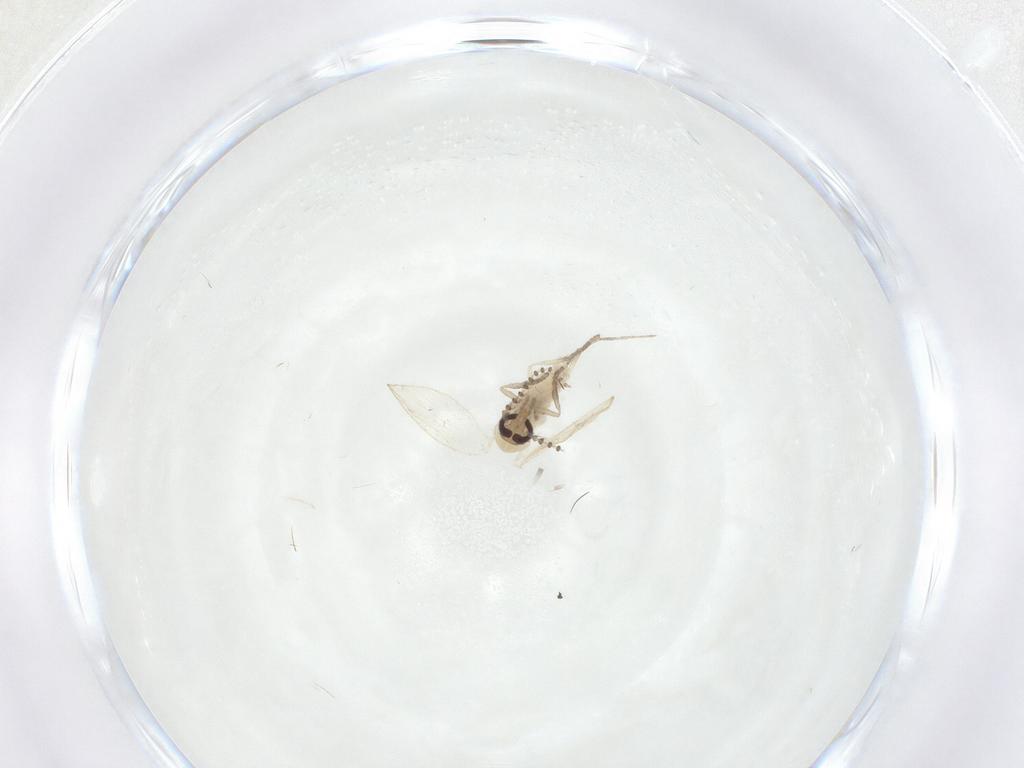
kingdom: Animalia
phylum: Arthropoda
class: Insecta
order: Diptera
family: Psychodidae
